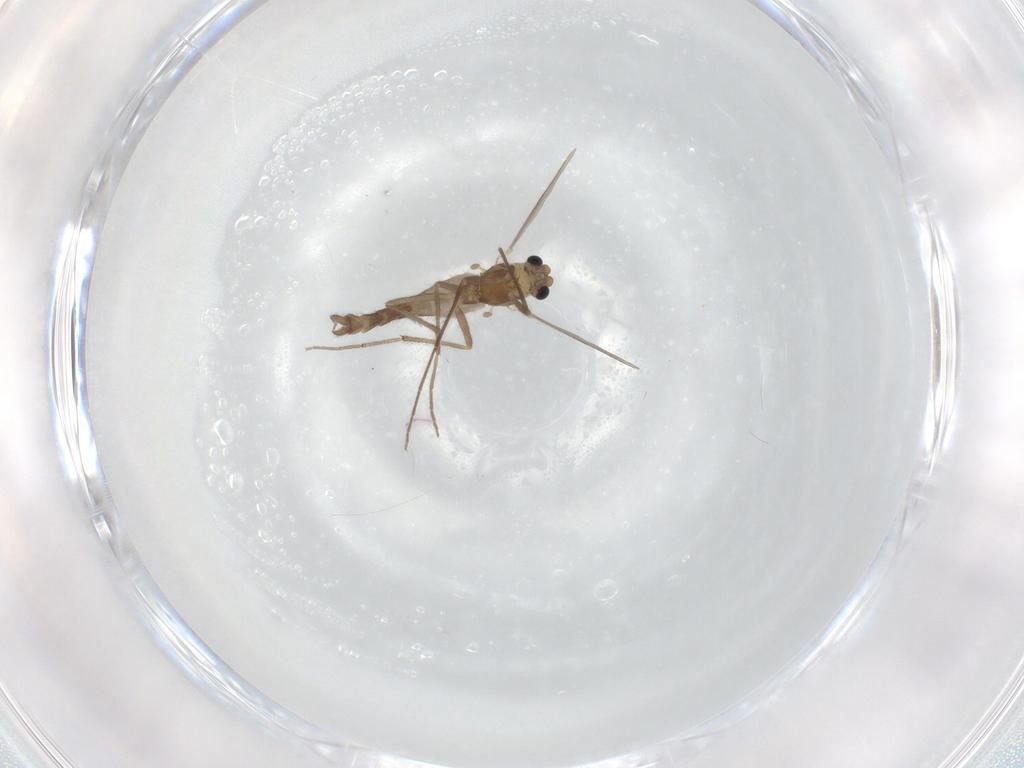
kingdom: Animalia
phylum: Arthropoda
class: Insecta
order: Diptera
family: Chironomidae
